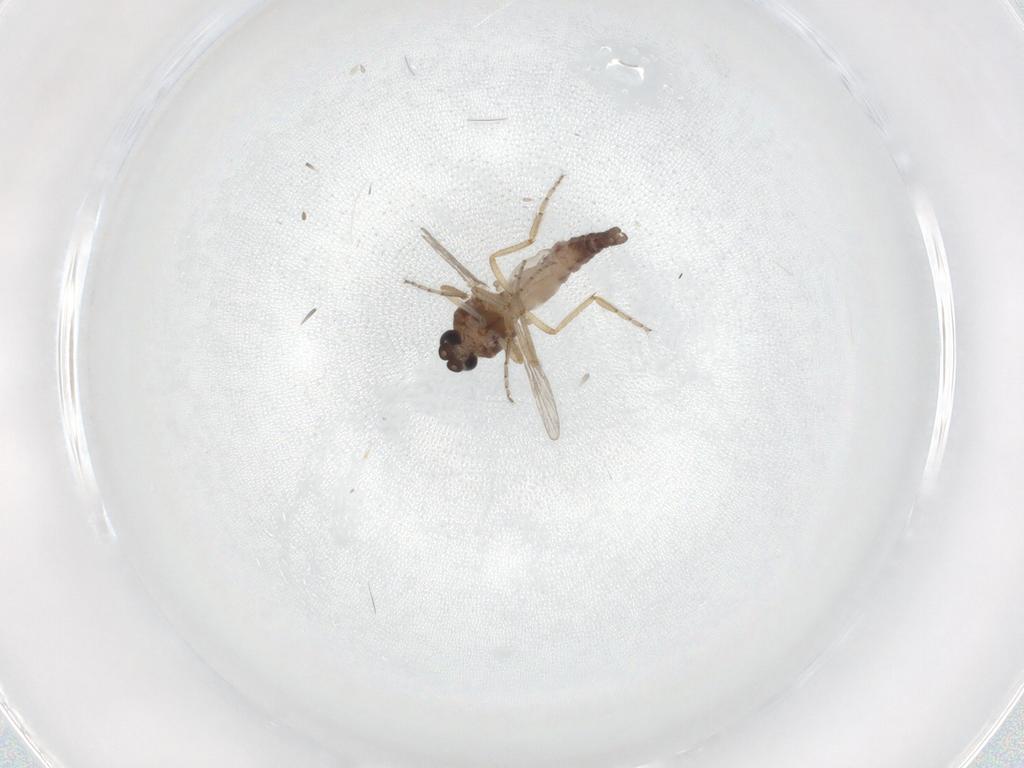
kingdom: Animalia
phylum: Arthropoda
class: Insecta
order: Diptera
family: Ceratopogonidae
